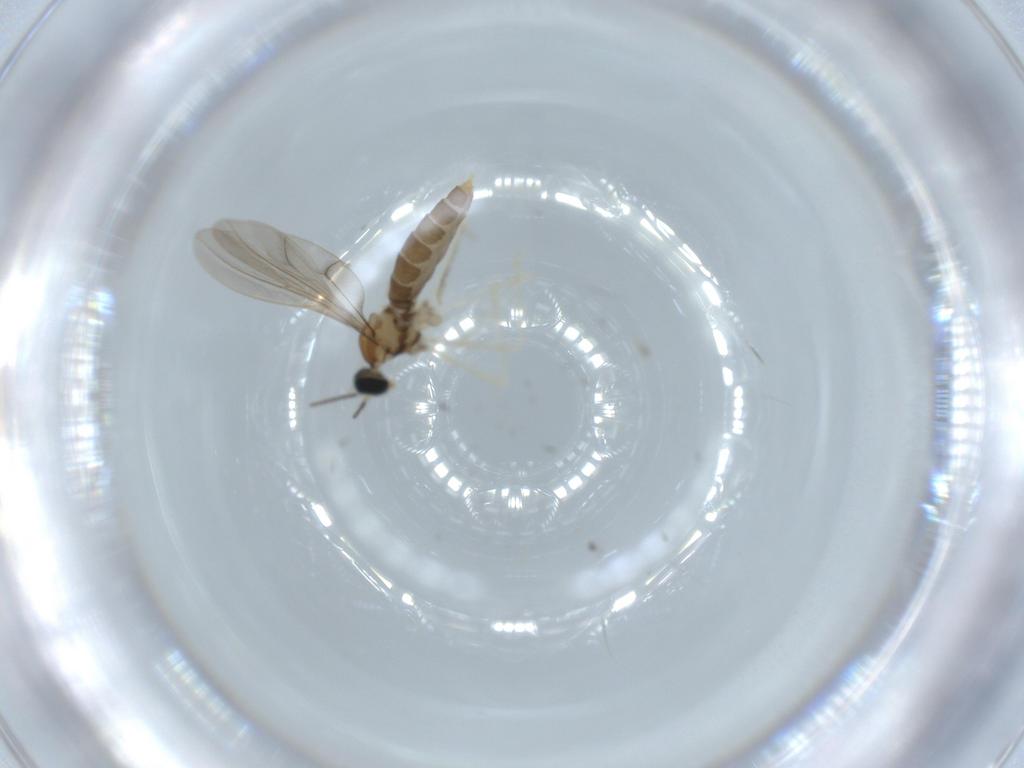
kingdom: Animalia
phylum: Arthropoda
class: Insecta
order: Diptera
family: Cecidomyiidae
